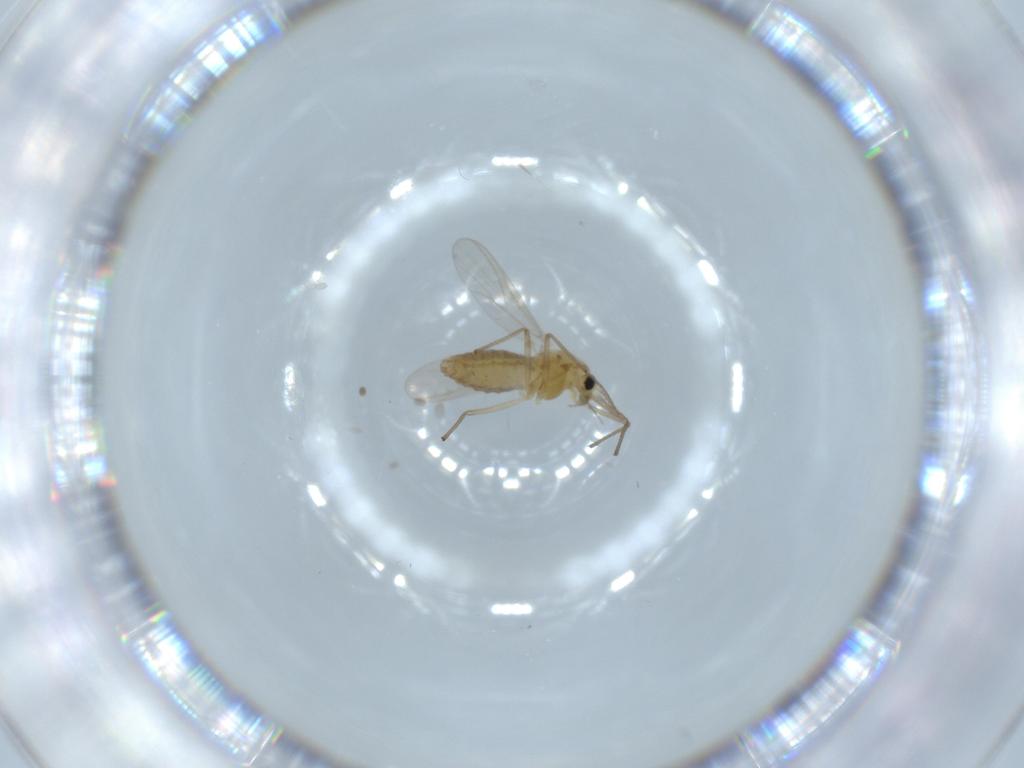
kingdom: Animalia
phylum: Arthropoda
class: Insecta
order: Diptera
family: Chironomidae
